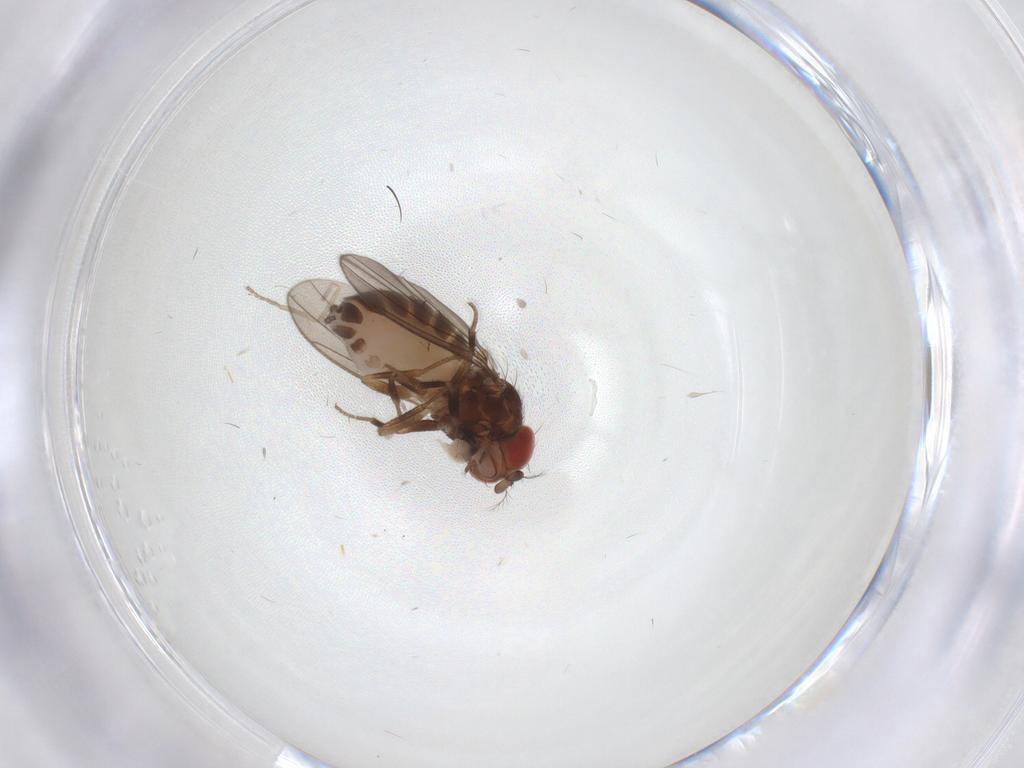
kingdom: Animalia
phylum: Arthropoda
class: Insecta
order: Diptera
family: Drosophilidae
